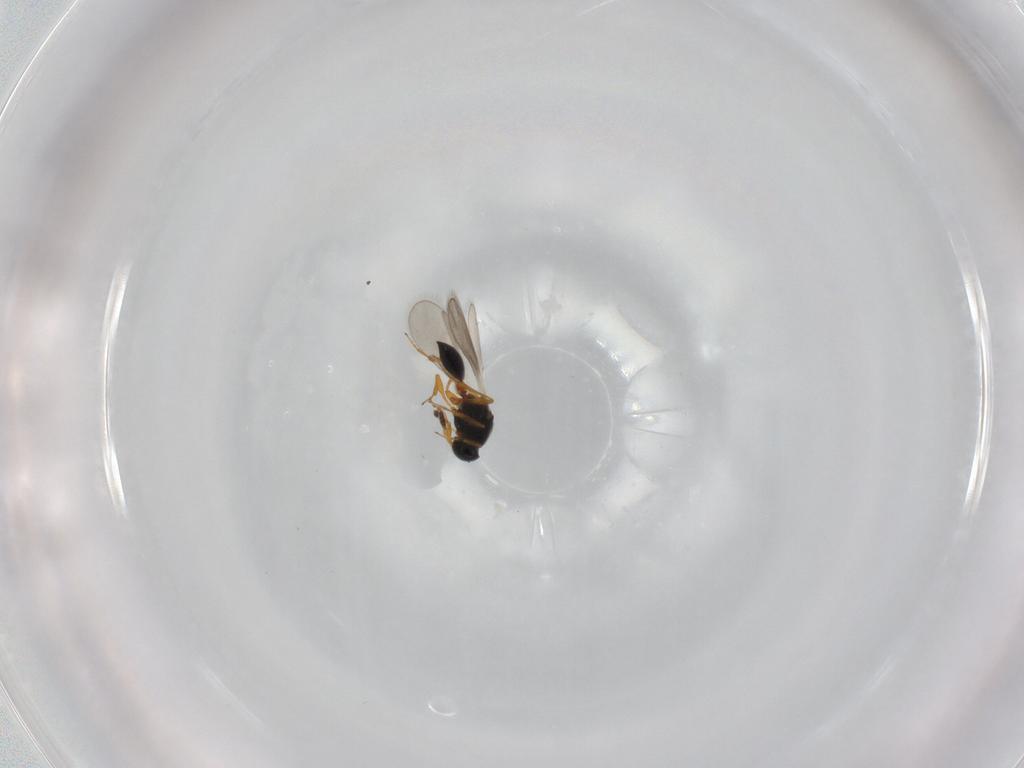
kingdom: Animalia
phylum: Arthropoda
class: Insecta
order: Hymenoptera
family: Platygastridae
